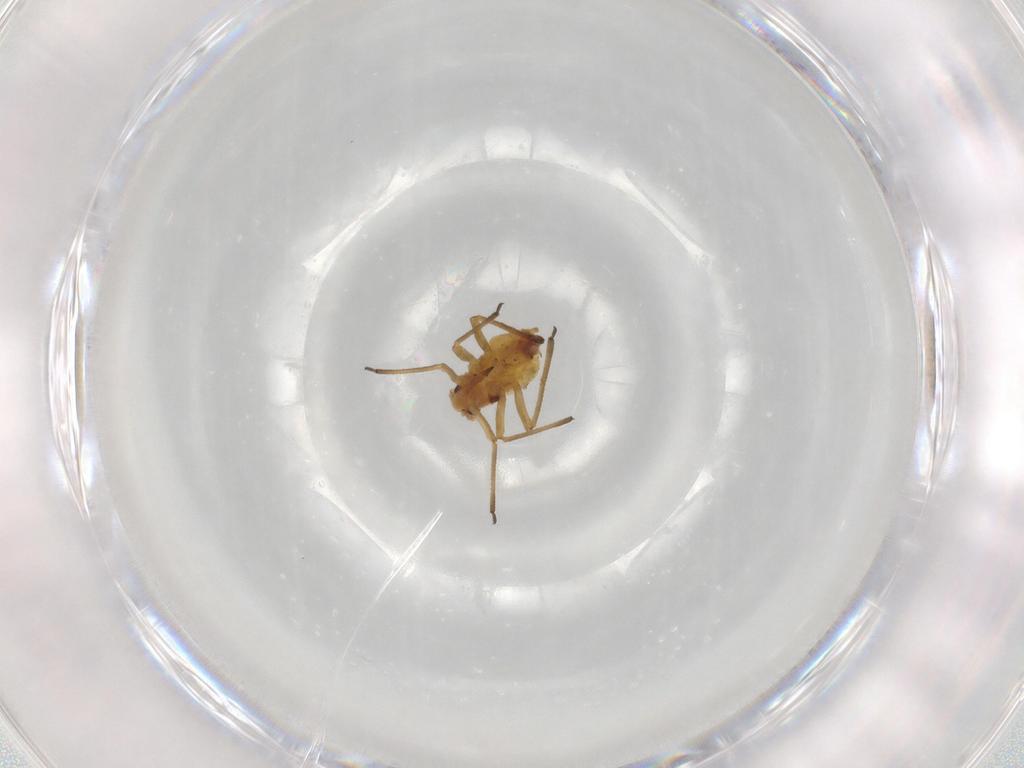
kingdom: Animalia
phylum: Arthropoda
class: Insecta
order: Hemiptera
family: Aphididae
